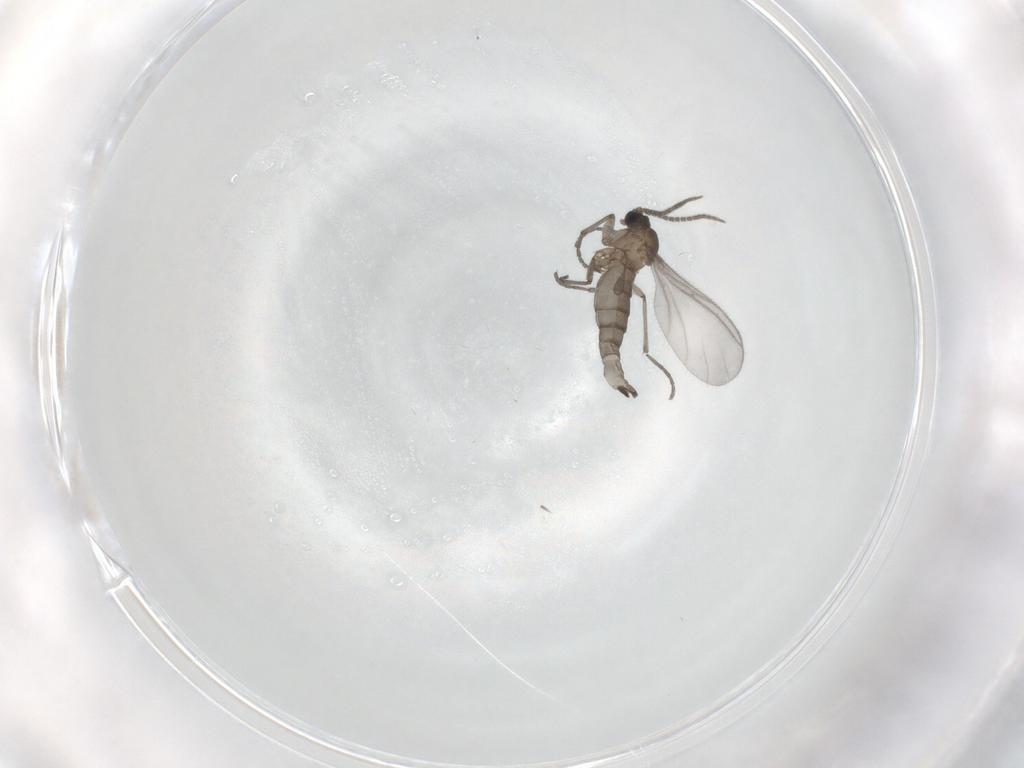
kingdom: Animalia
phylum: Arthropoda
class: Insecta
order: Diptera
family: Sciaridae
